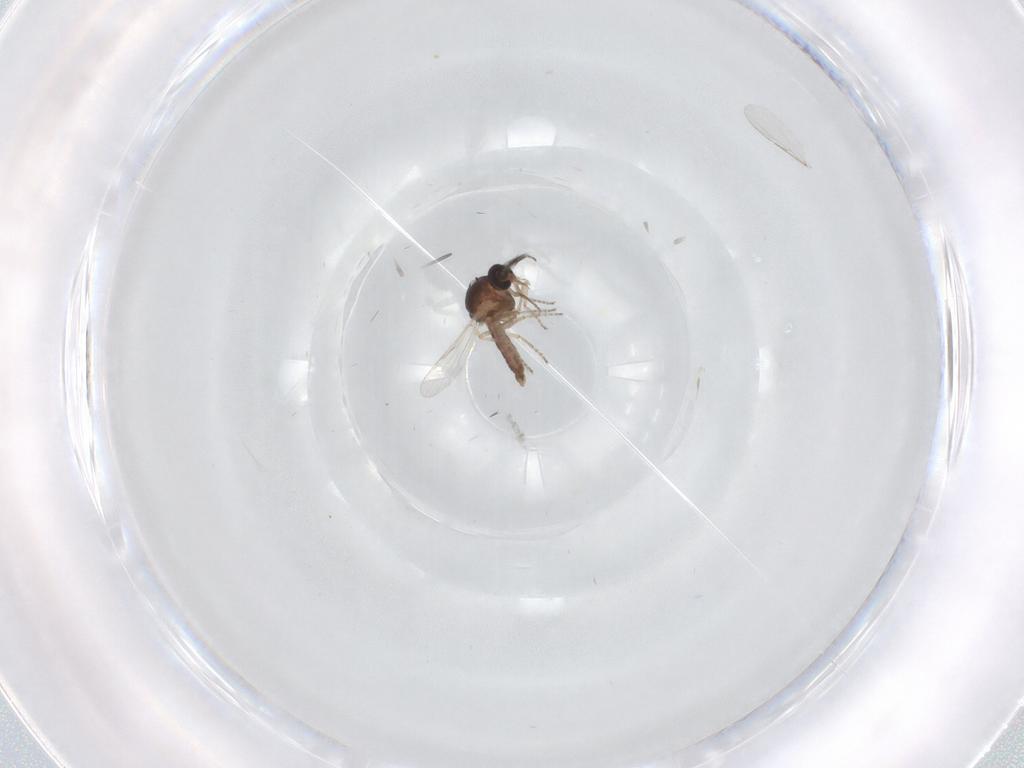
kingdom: Animalia
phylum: Arthropoda
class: Insecta
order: Diptera
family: Ceratopogonidae
